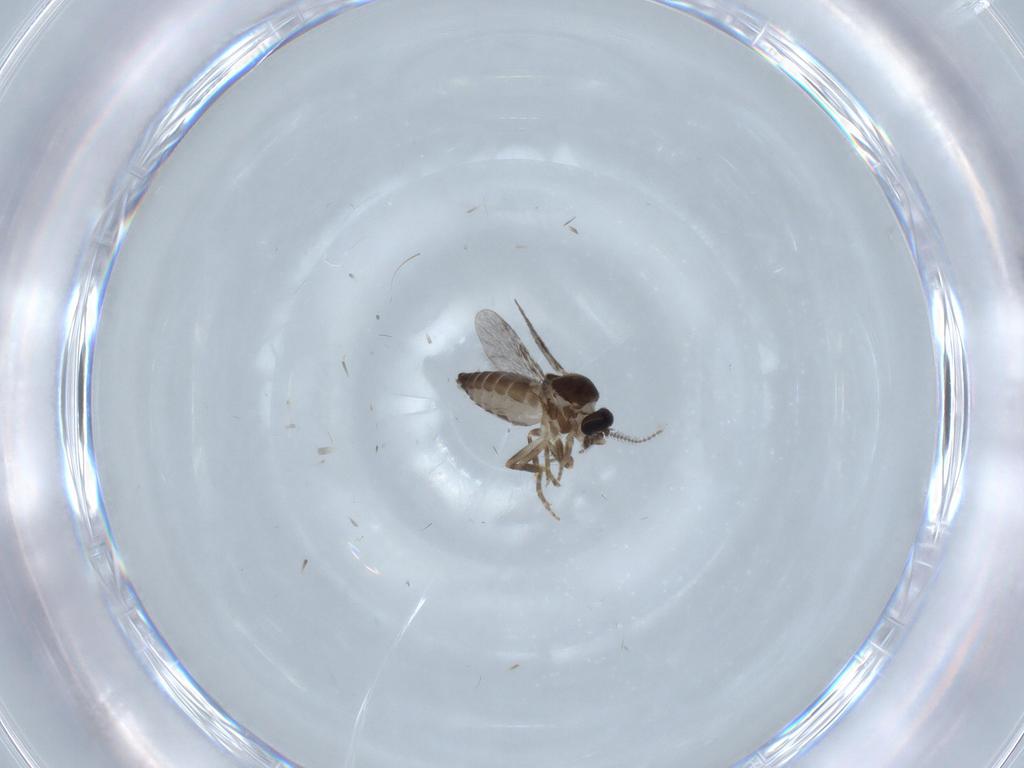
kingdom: Animalia
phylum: Arthropoda
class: Insecta
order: Diptera
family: Ceratopogonidae
